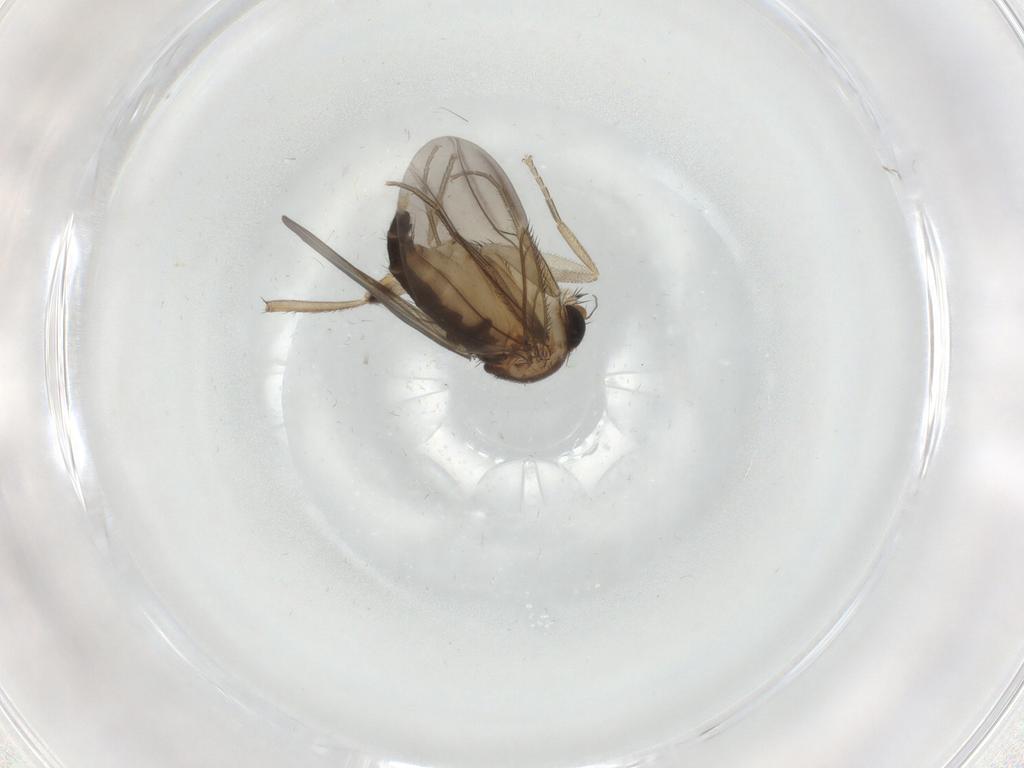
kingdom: Animalia
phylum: Arthropoda
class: Insecta
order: Diptera
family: Phoridae
